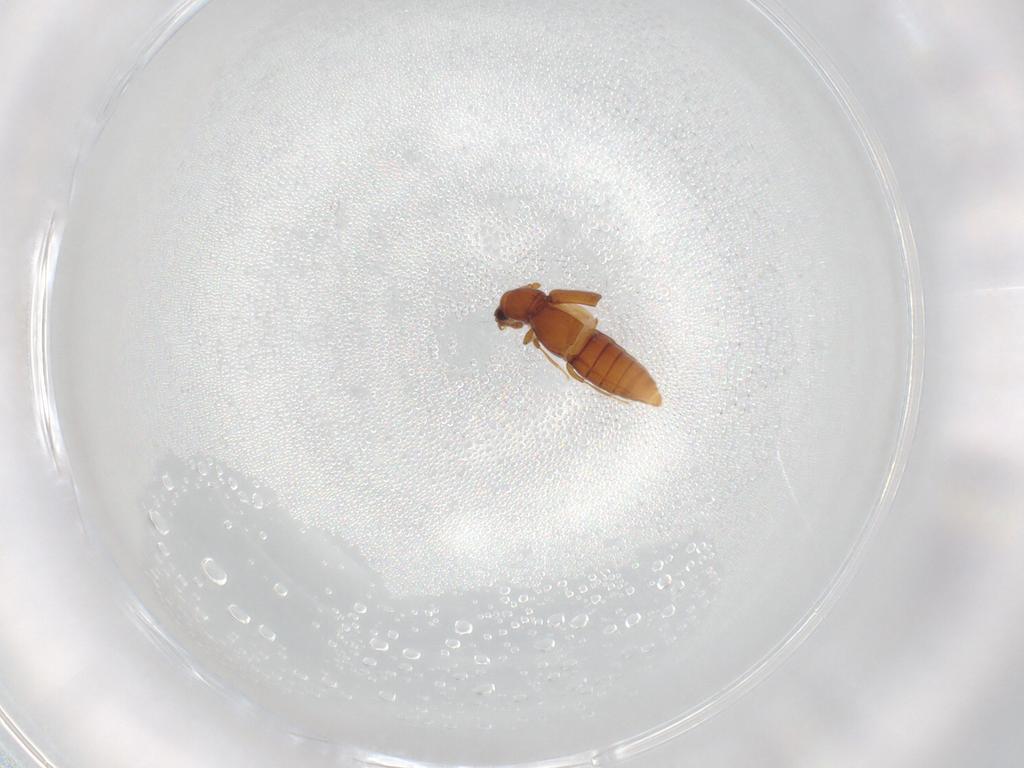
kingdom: Animalia
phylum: Arthropoda
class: Insecta
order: Coleoptera
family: Staphylinidae
